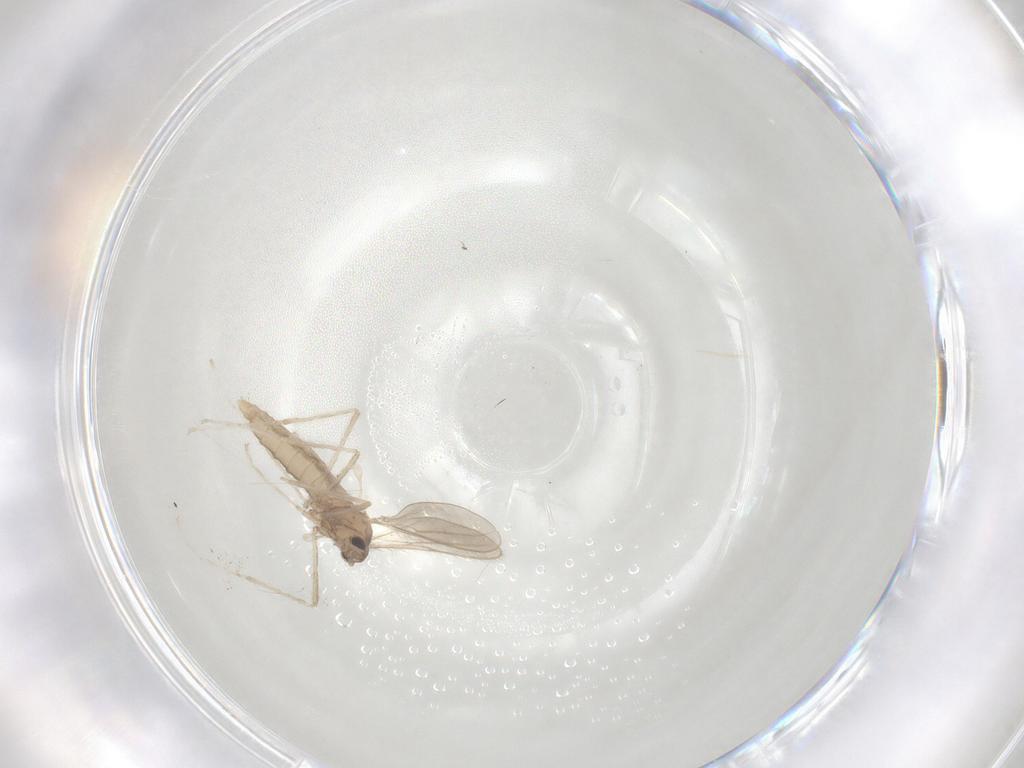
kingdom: Animalia
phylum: Arthropoda
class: Insecta
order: Diptera
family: Cecidomyiidae
